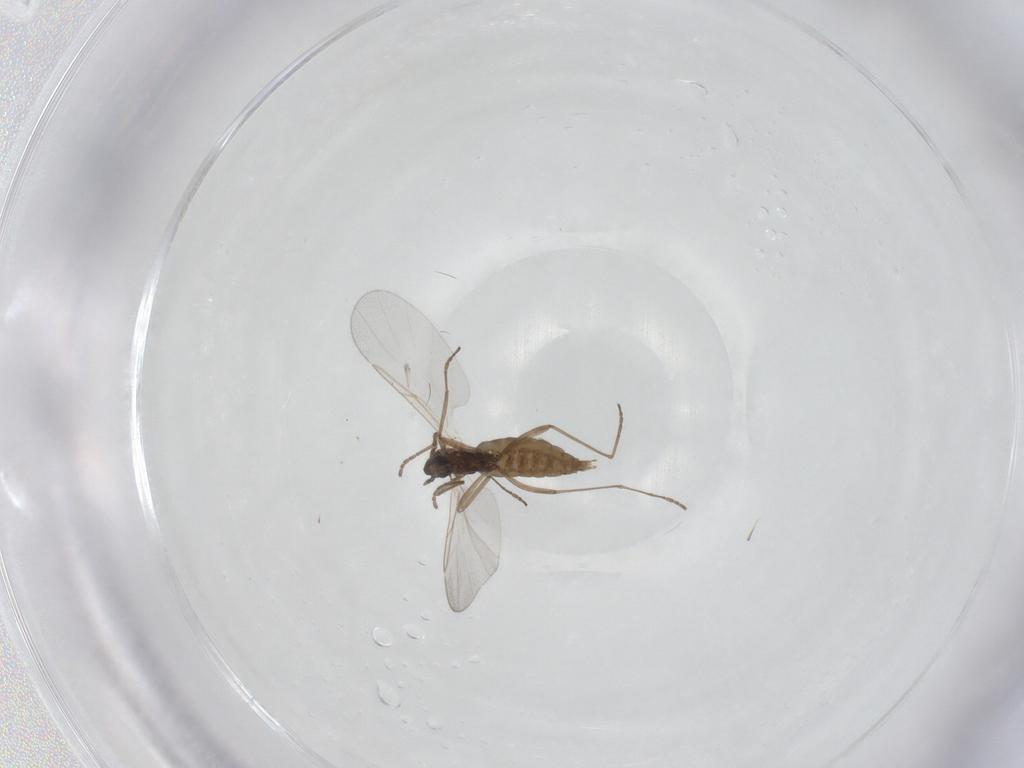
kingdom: Animalia
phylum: Arthropoda
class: Insecta
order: Diptera
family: Cecidomyiidae
